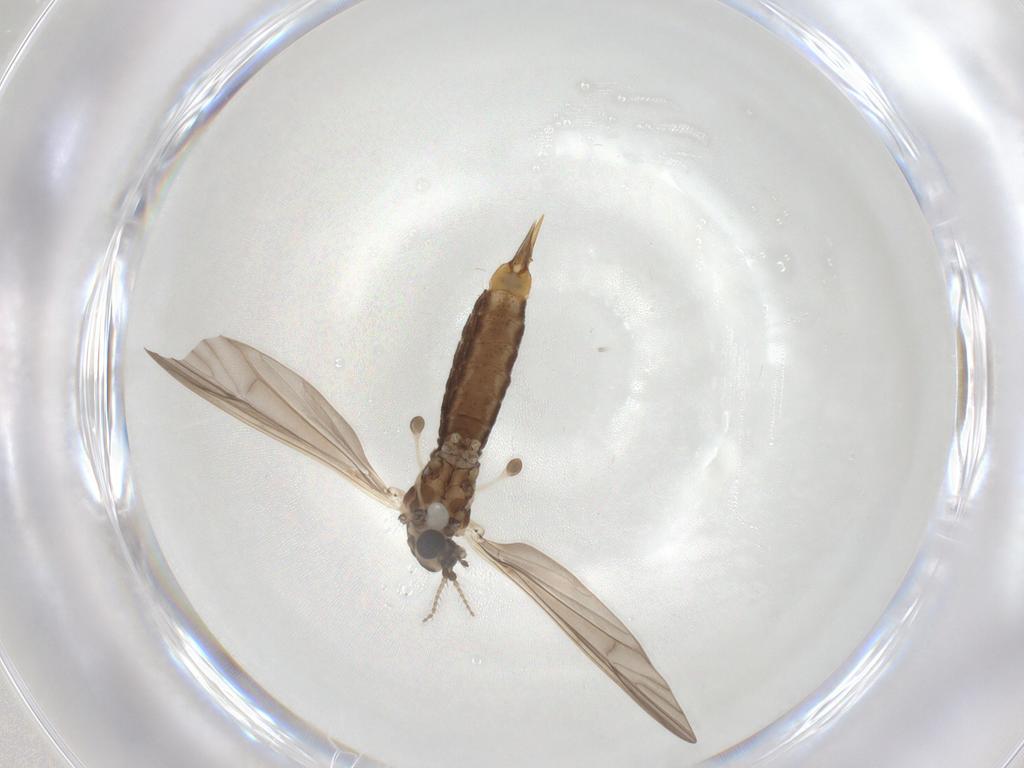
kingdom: Animalia
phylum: Arthropoda
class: Insecta
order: Diptera
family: Limoniidae
